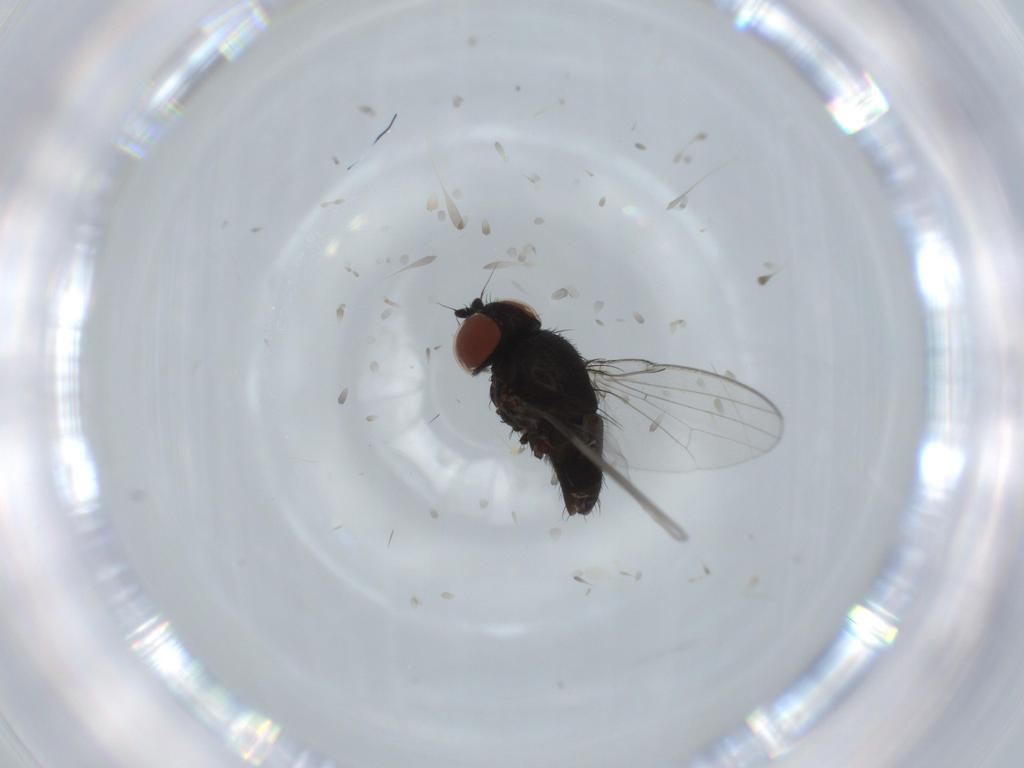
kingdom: Animalia
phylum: Arthropoda
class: Insecta
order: Diptera
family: Milichiidae
